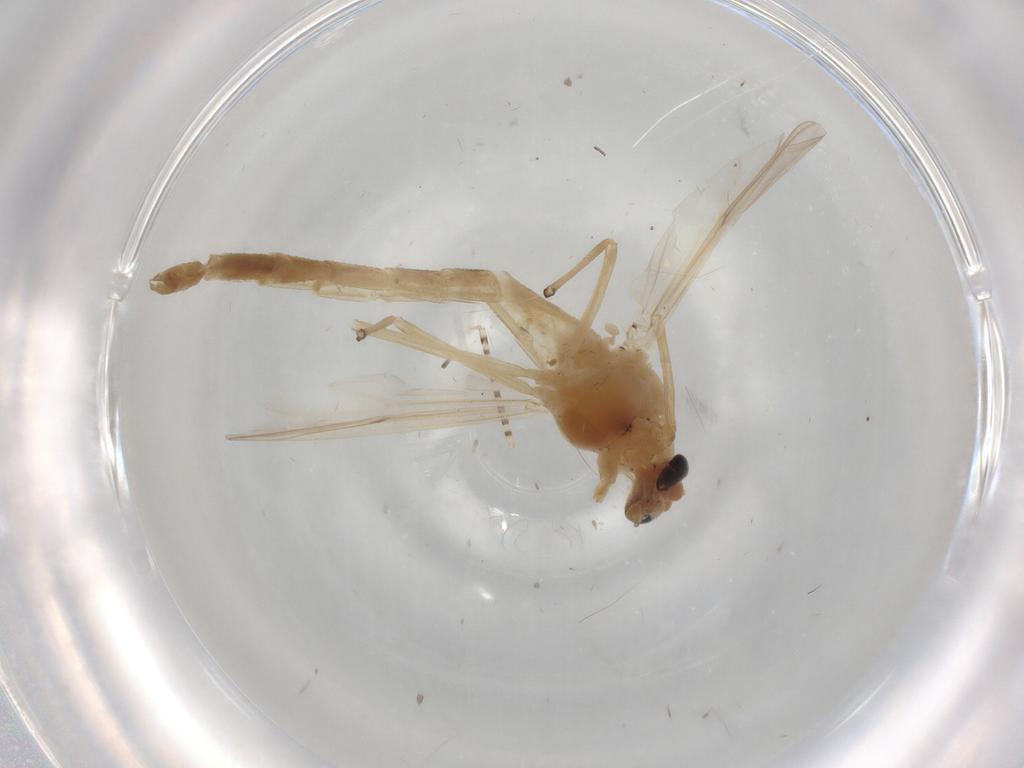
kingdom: Animalia
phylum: Arthropoda
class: Insecta
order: Diptera
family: Chironomidae
